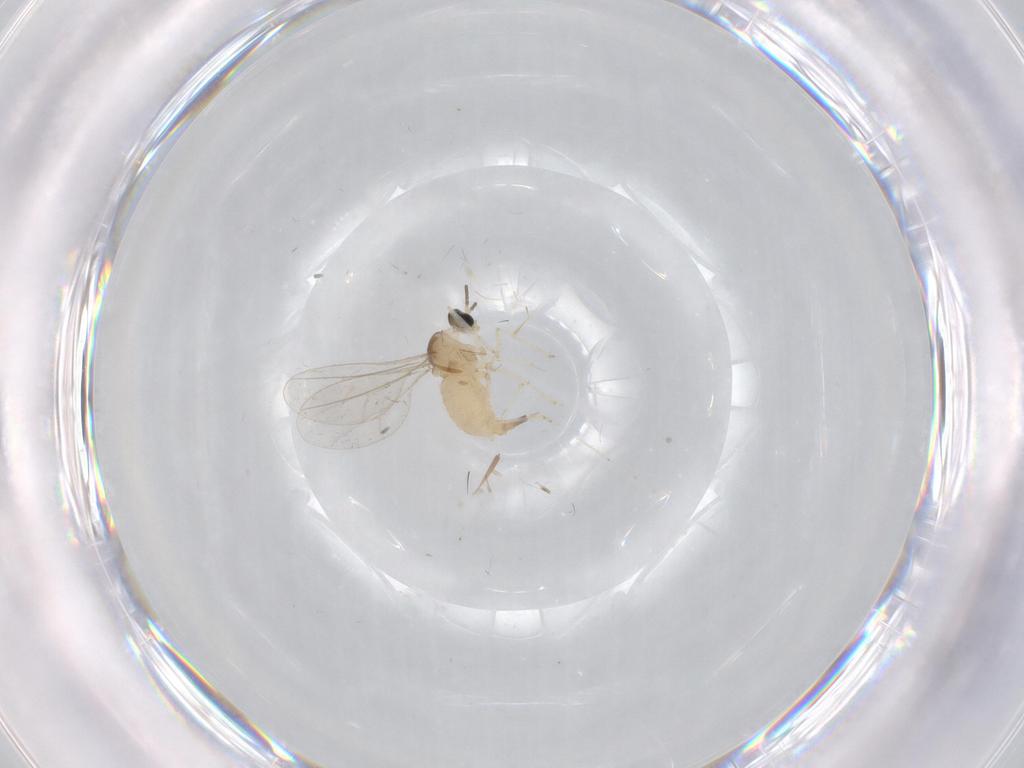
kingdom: Animalia
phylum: Arthropoda
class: Insecta
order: Diptera
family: Cecidomyiidae
